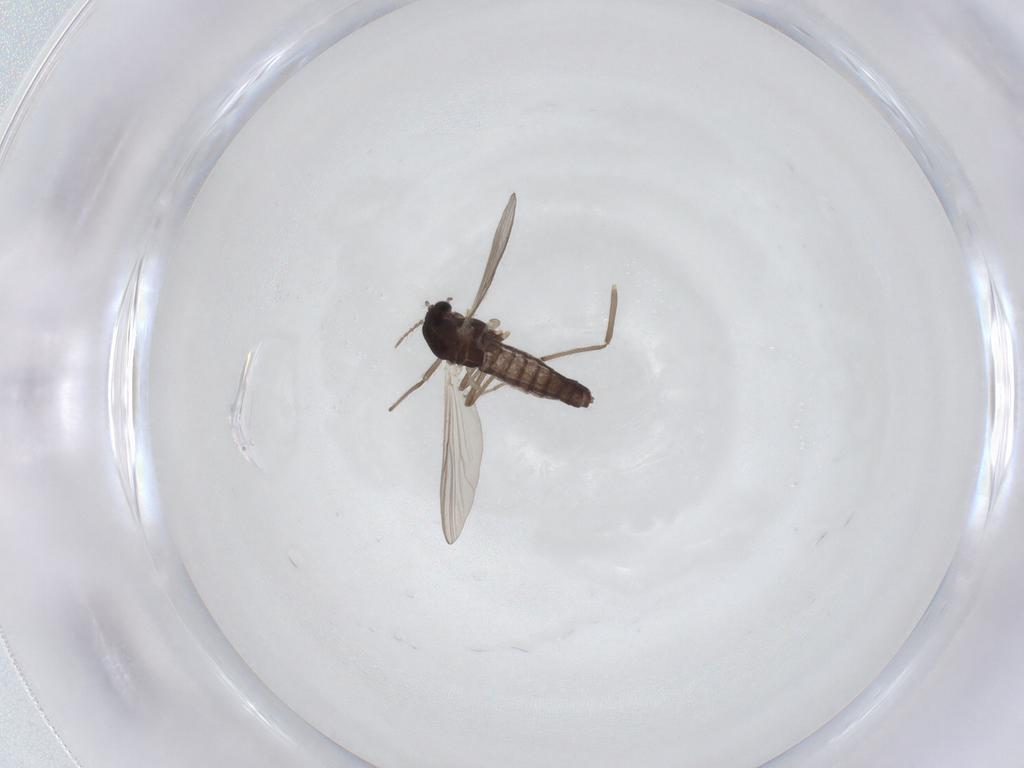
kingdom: Animalia
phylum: Arthropoda
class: Insecta
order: Diptera
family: Chironomidae
